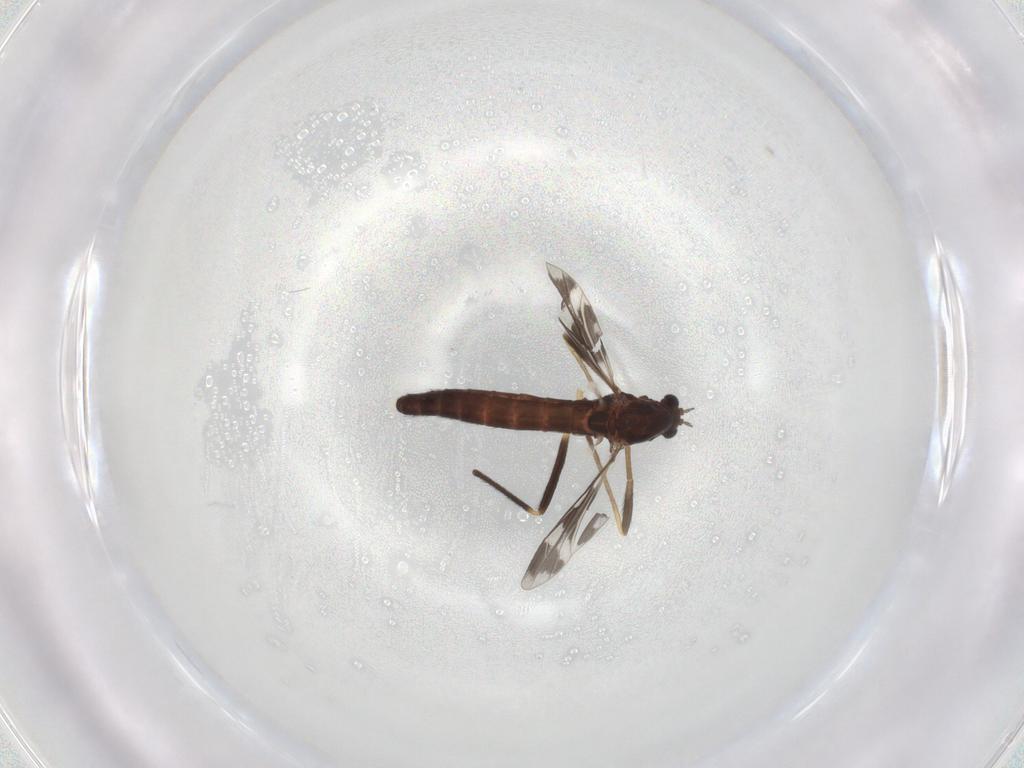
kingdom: Animalia
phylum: Arthropoda
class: Insecta
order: Diptera
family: Chironomidae
